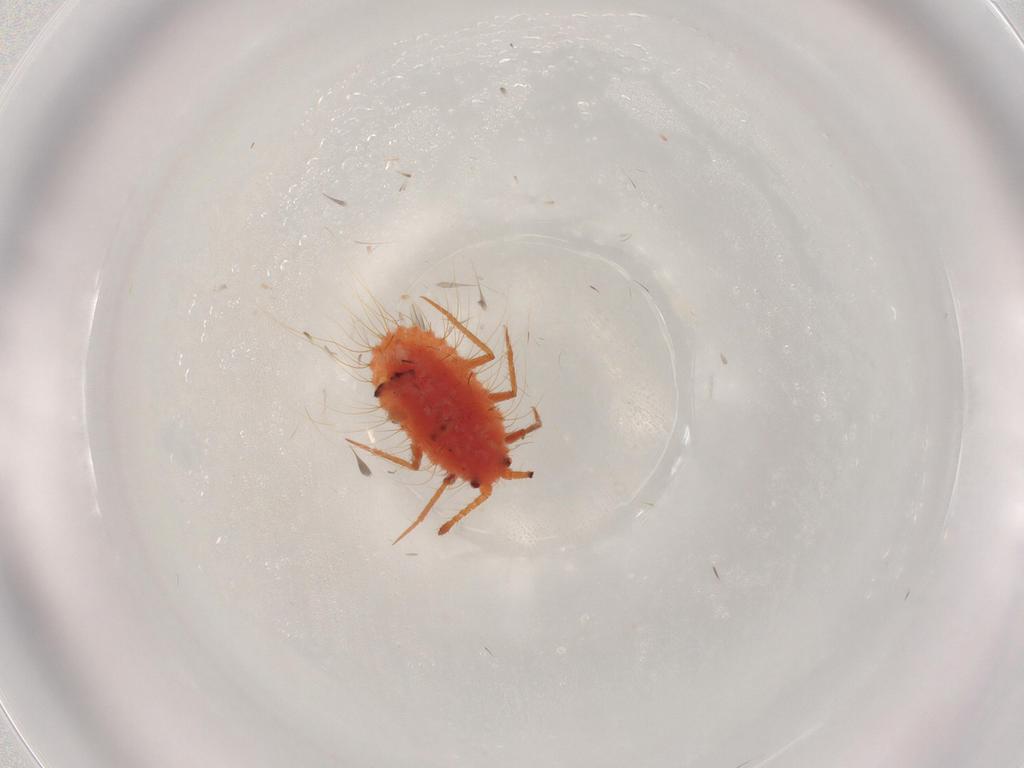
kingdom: Animalia
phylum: Arthropoda
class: Insecta
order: Hemiptera
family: Monophlebidae
